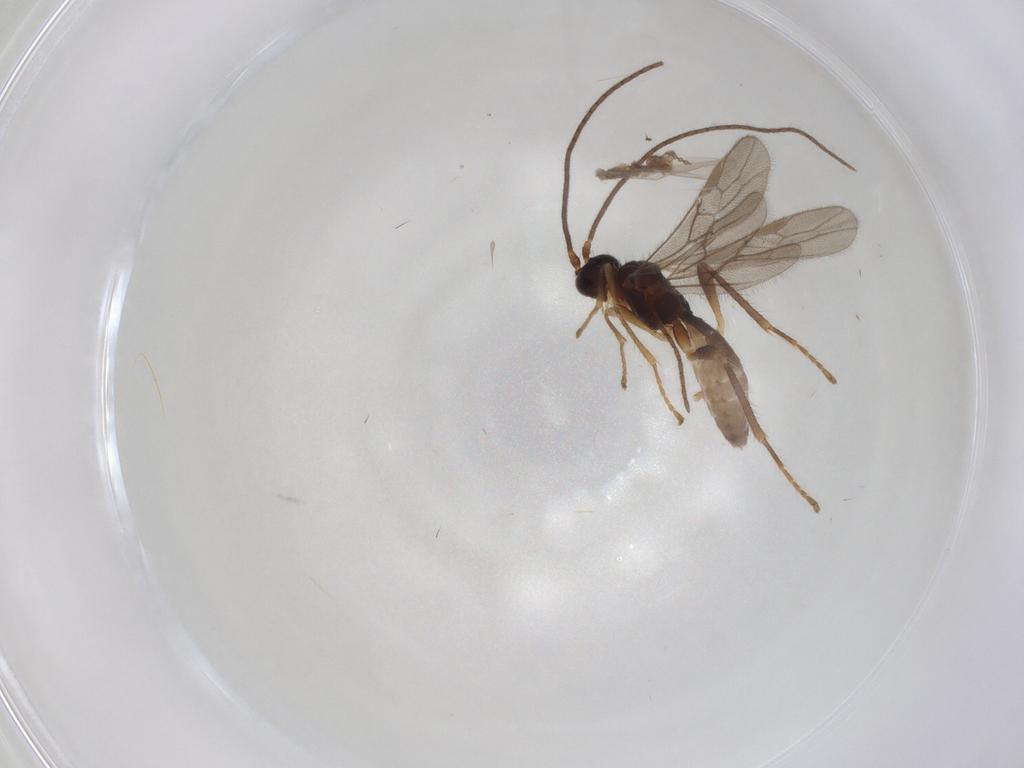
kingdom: Animalia
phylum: Arthropoda
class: Insecta
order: Hymenoptera
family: Braconidae
